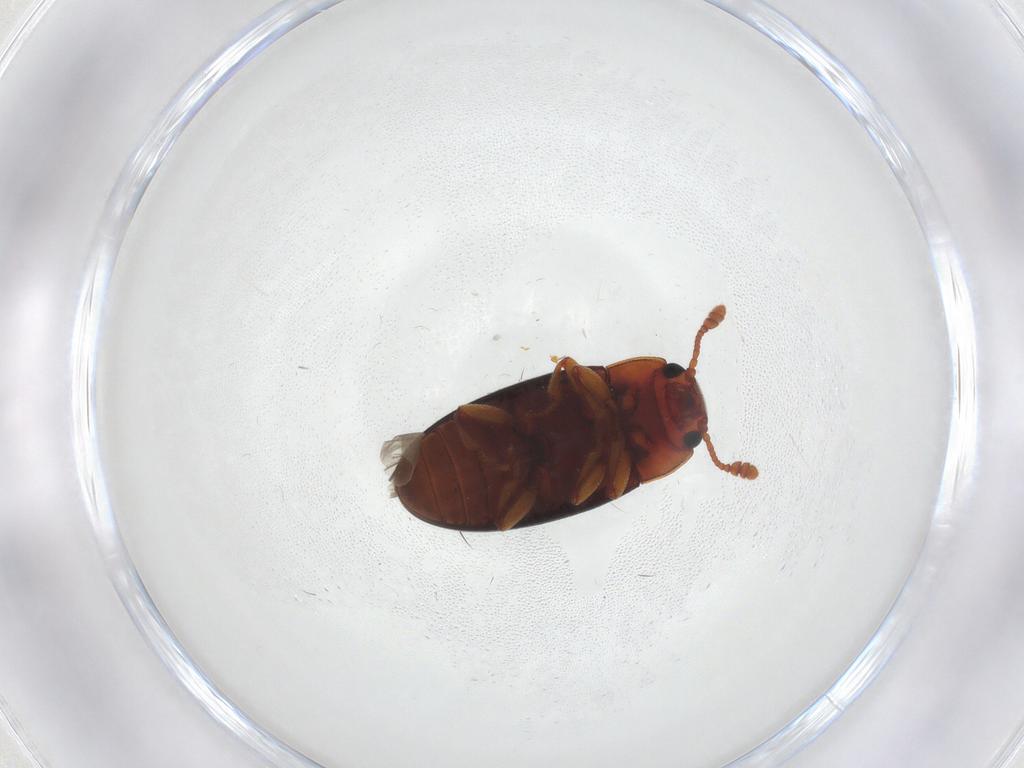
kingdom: Animalia
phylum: Arthropoda
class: Insecta
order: Coleoptera
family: Erotylidae
